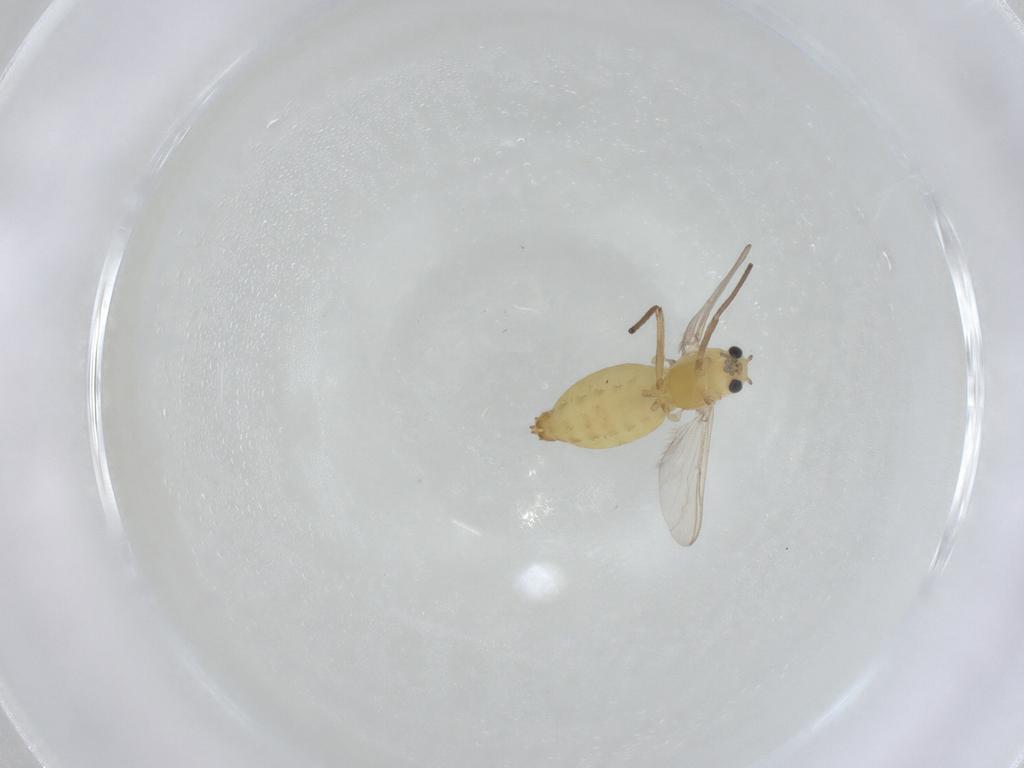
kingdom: Animalia
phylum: Arthropoda
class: Insecta
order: Diptera
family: Chironomidae
